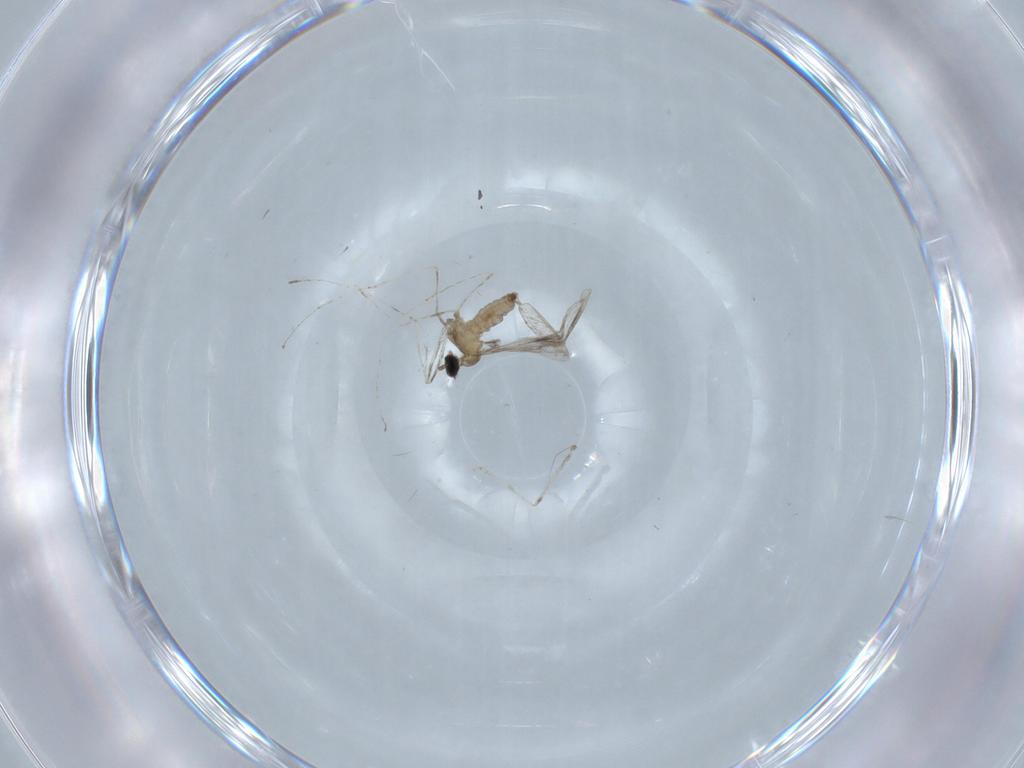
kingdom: Animalia
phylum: Arthropoda
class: Insecta
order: Diptera
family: Cecidomyiidae
